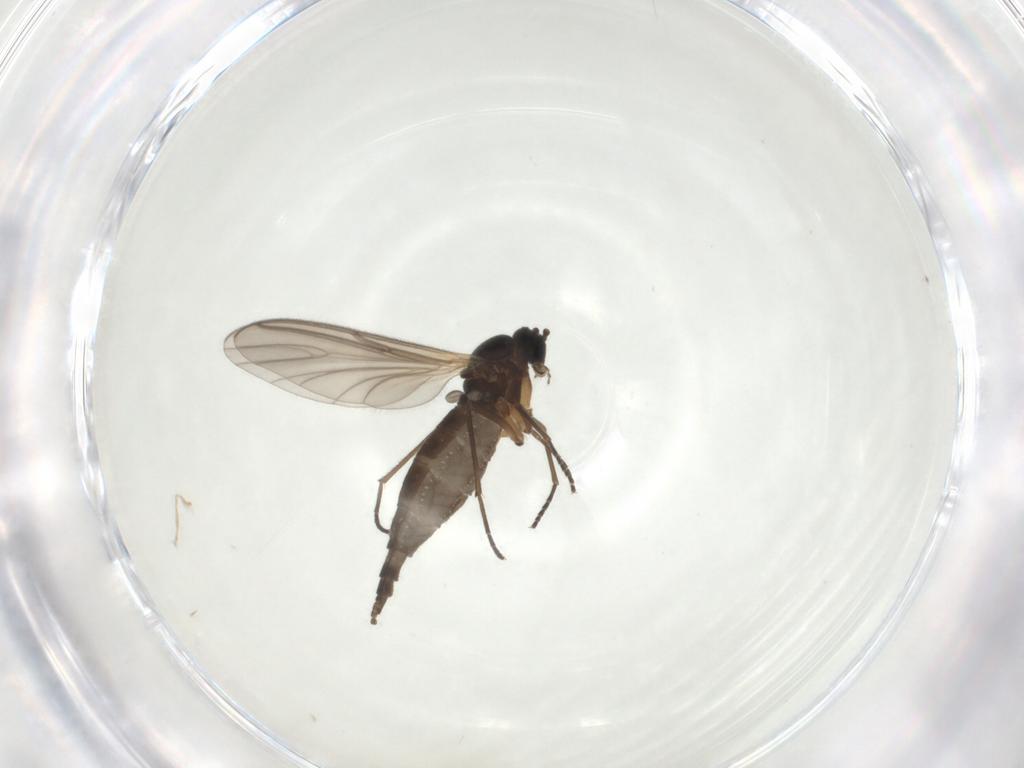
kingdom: Animalia
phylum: Arthropoda
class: Insecta
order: Diptera
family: Sciaridae
